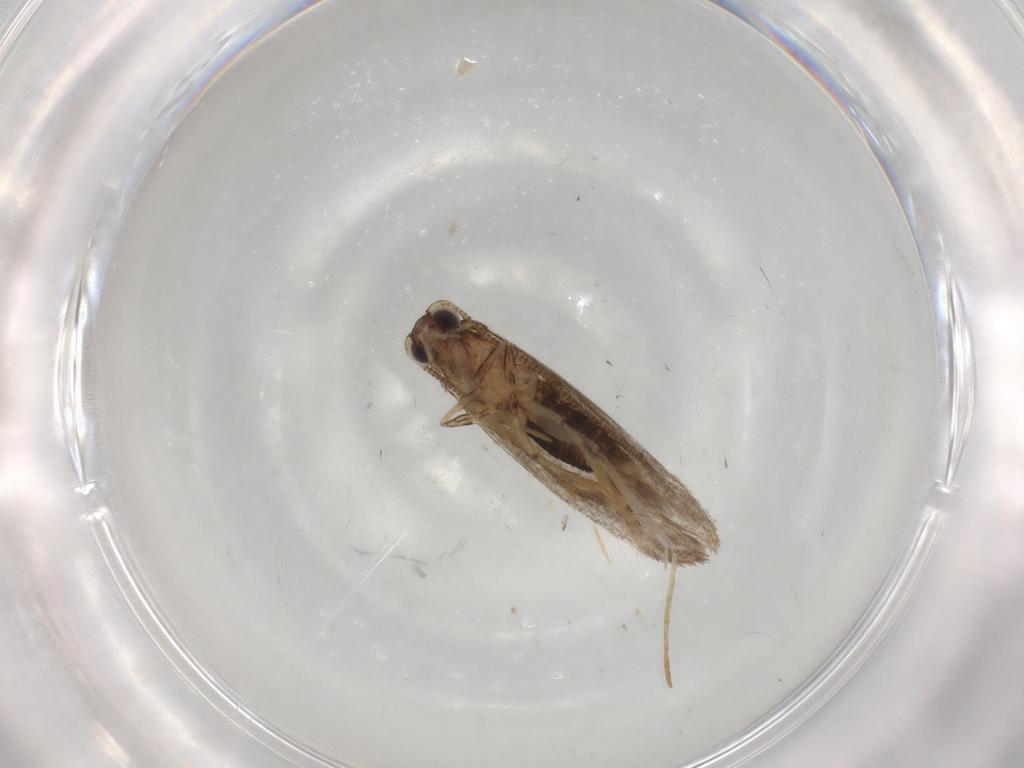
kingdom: Animalia
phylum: Arthropoda
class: Insecta
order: Lepidoptera
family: Tineidae
